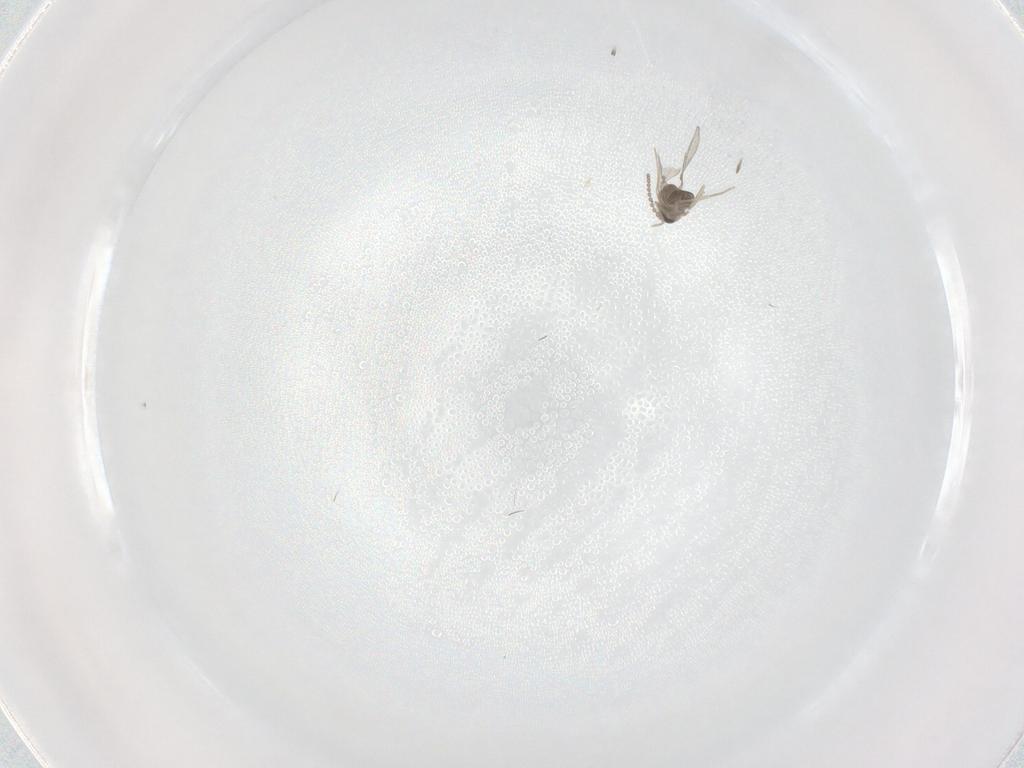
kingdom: Animalia
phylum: Arthropoda
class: Insecta
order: Diptera
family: Cecidomyiidae
